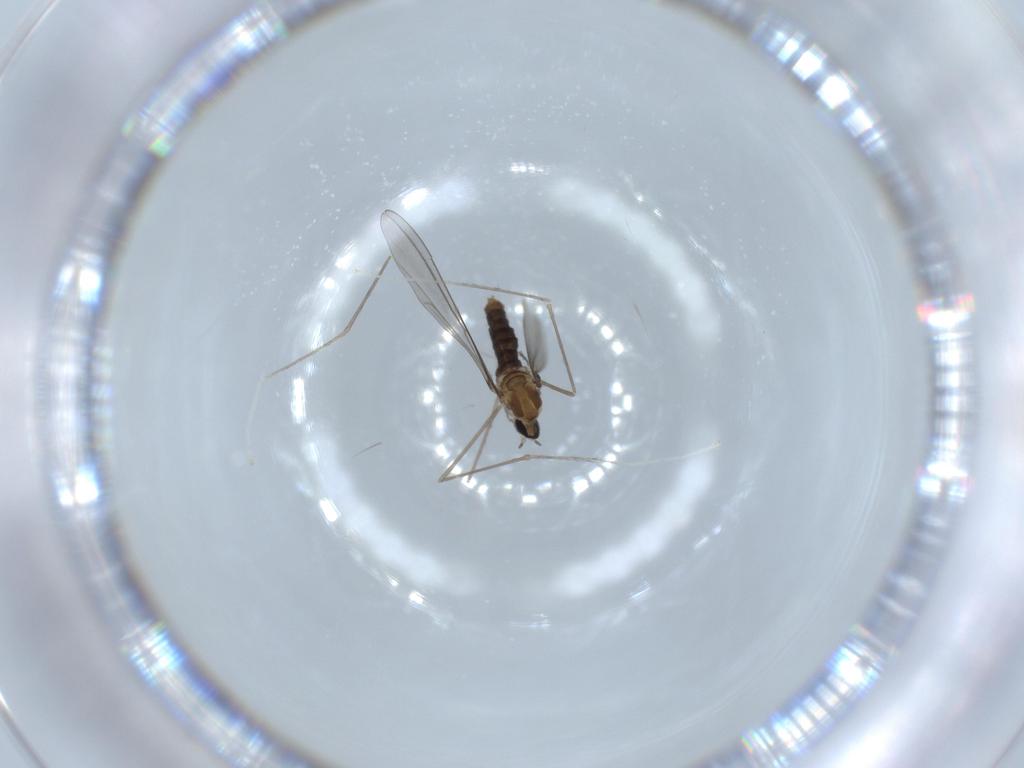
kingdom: Animalia
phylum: Arthropoda
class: Insecta
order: Diptera
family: Cecidomyiidae
